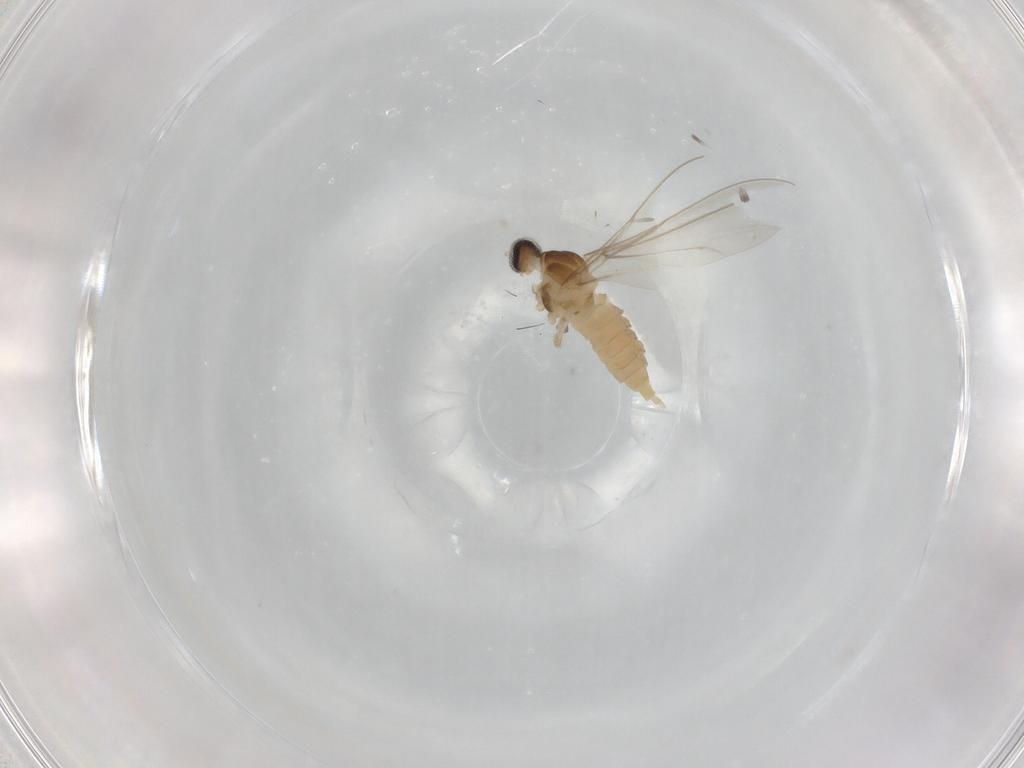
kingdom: Animalia
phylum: Arthropoda
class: Insecta
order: Diptera
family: Cecidomyiidae
